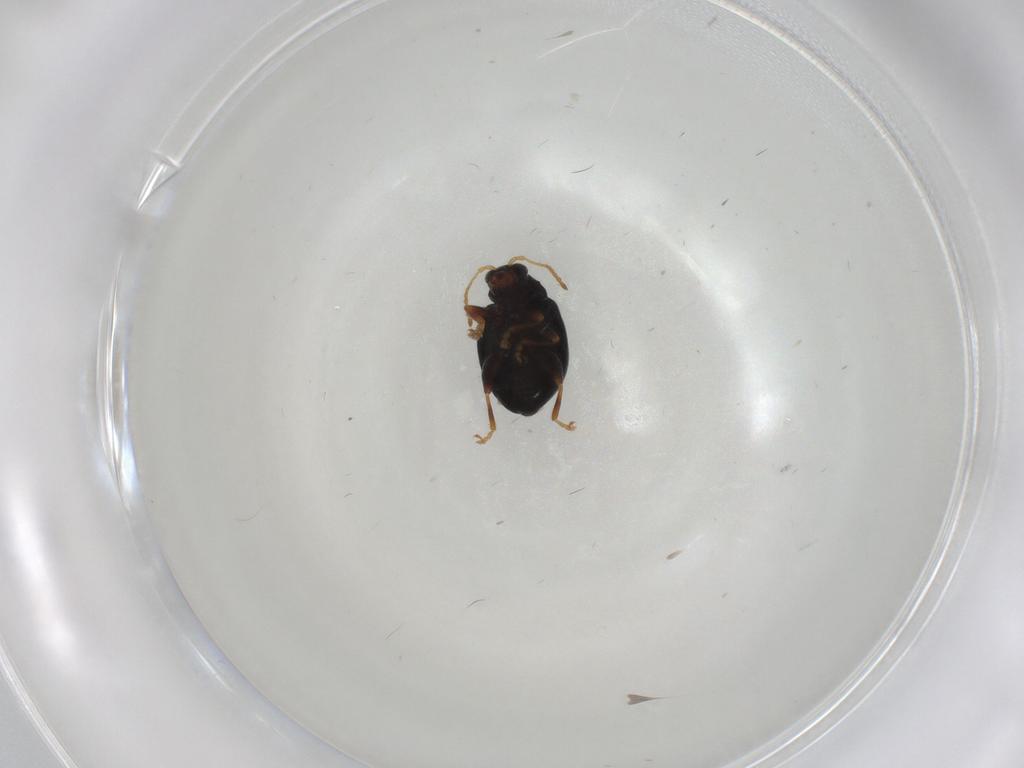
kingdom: Animalia
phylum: Arthropoda
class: Insecta
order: Coleoptera
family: Chrysomelidae
